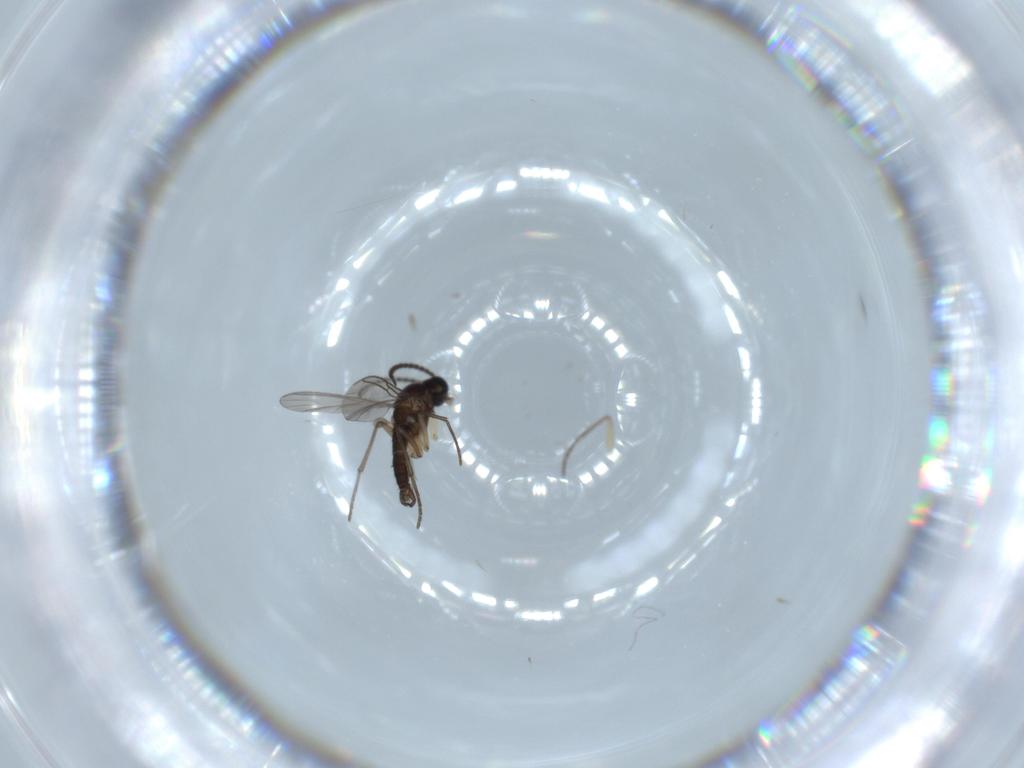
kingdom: Animalia
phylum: Arthropoda
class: Insecta
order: Diptera
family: Sciaridae
